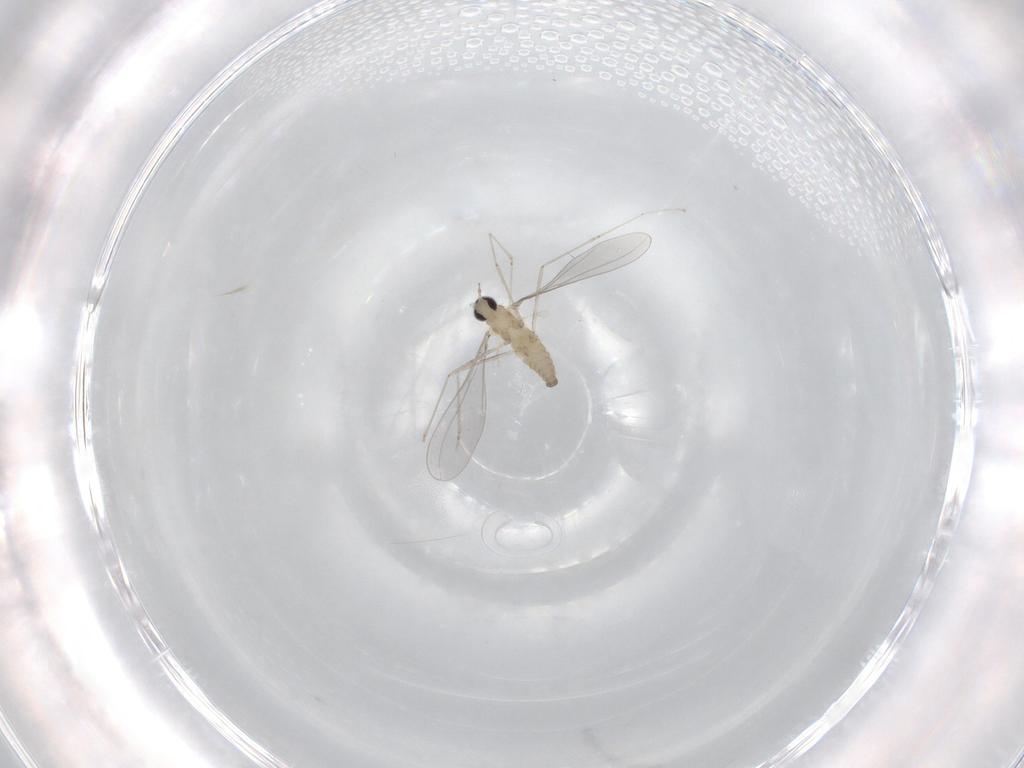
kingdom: Animalia
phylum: Arthropoda
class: Insecta
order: Diptera
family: Cecidomyiidae
